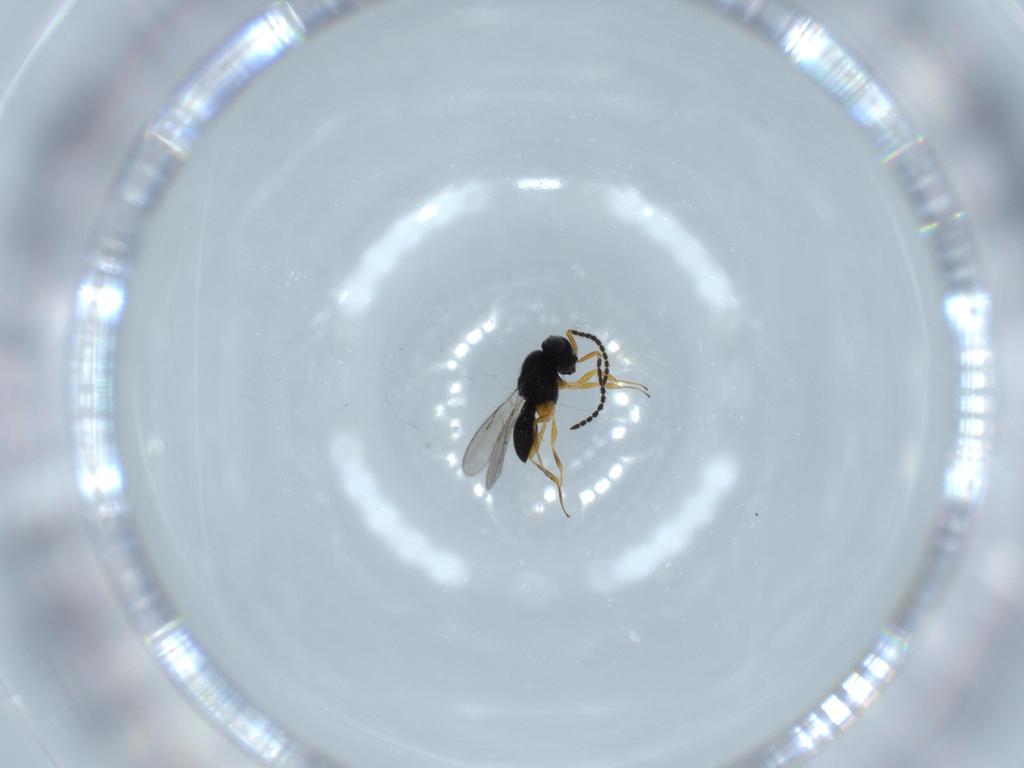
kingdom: Animalia
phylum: Arthropoda
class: Insecta
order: Hymenoptera
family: Scelionidae
